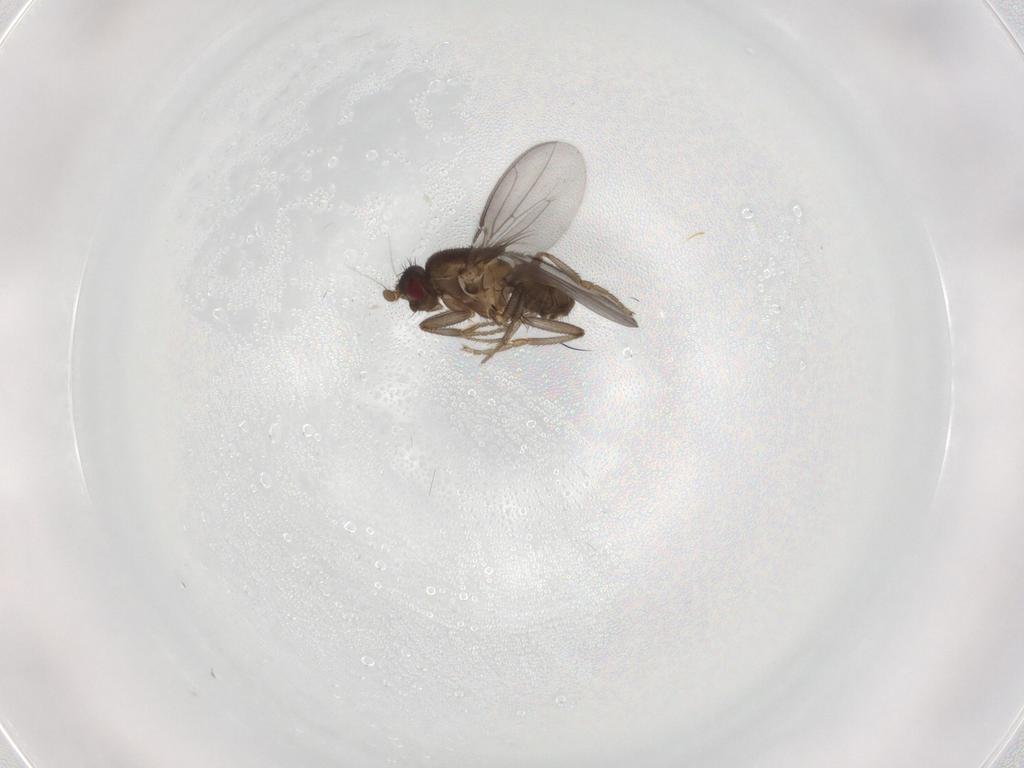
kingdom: Animalia
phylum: Arthropoda
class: Insecta
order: Diptera
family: Sphaeroceridae
